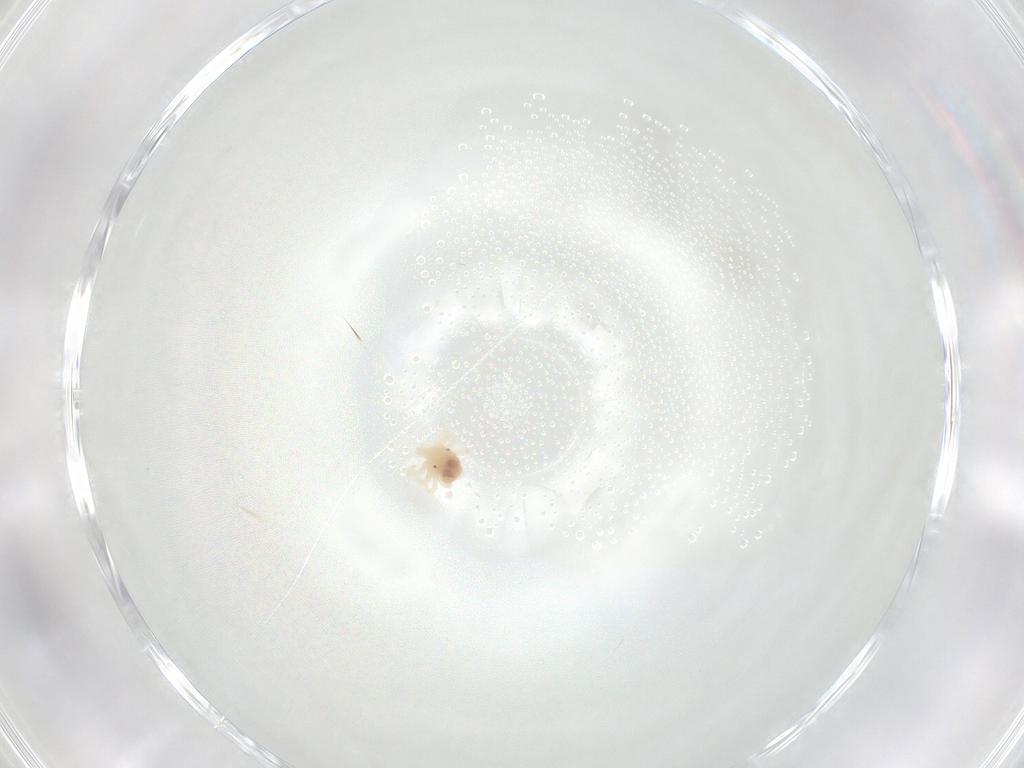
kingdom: Animalia
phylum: Arthropoda
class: Arachnida
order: Trombidiformes
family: Anystidae
